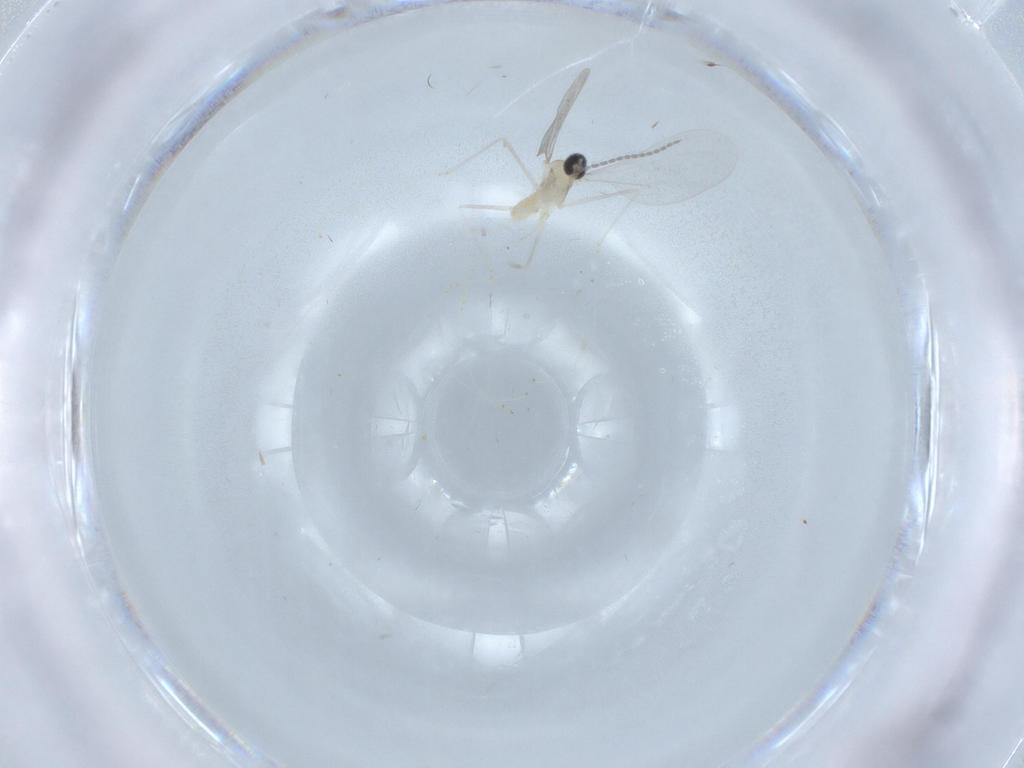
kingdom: Animalia
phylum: Arthropoda
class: Insecta
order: Diptera
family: Cecidomyiidae
